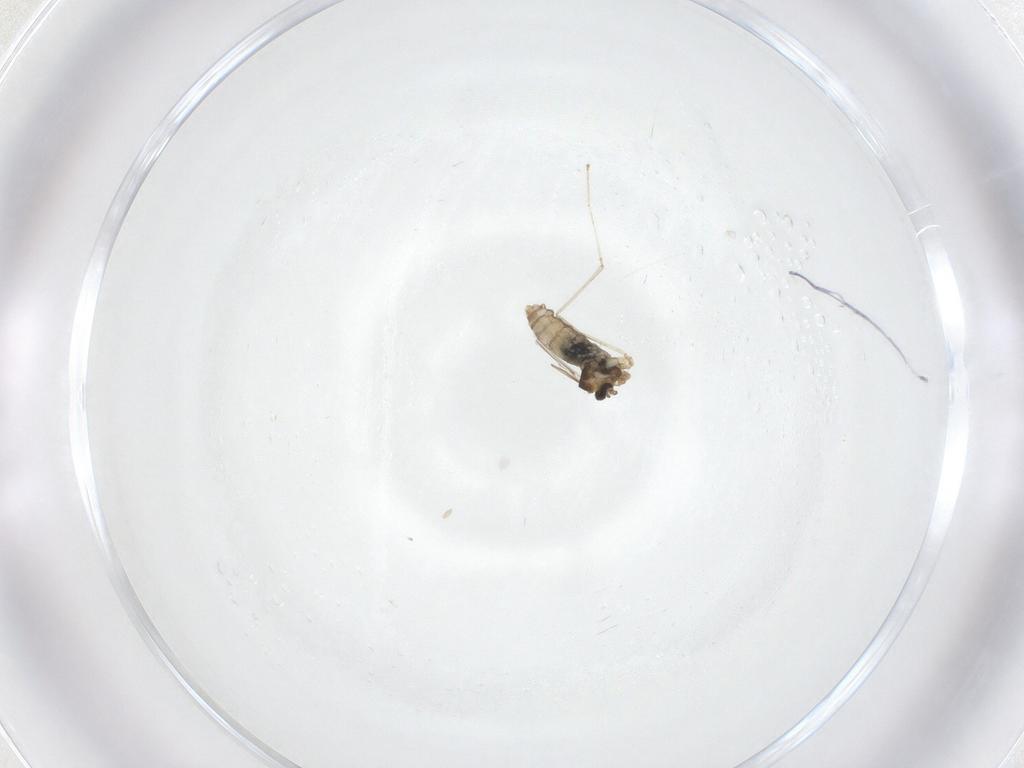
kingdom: Animalia
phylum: Arthropoda
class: Insecta
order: Diptera
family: Cecidomyiidae
